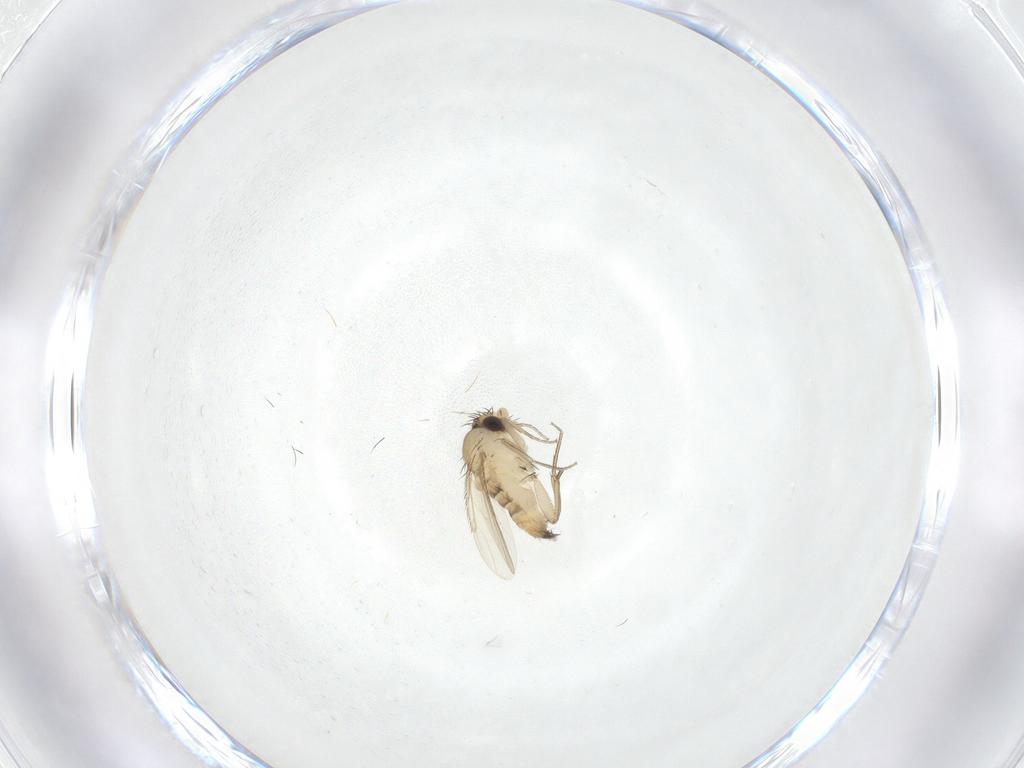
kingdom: Animalia
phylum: Arthropoda
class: Insecta
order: Diptera
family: Phoridae
